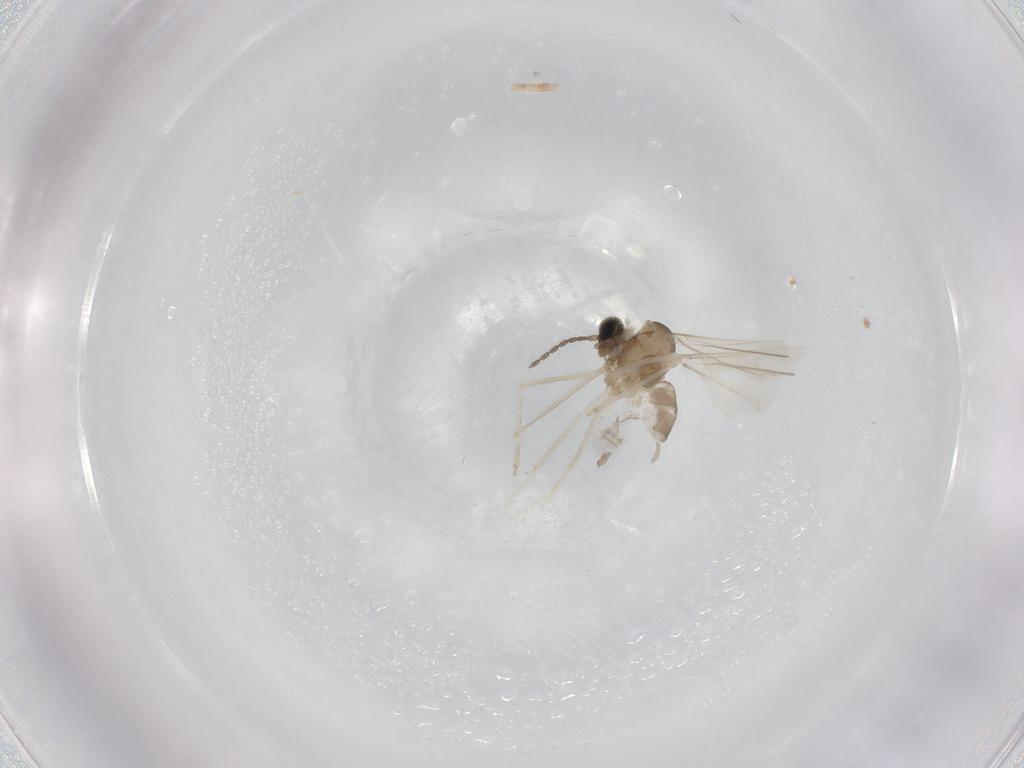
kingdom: Animalia
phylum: Arthropoda
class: Insecta
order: Diptera
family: Cecidomyiidae
